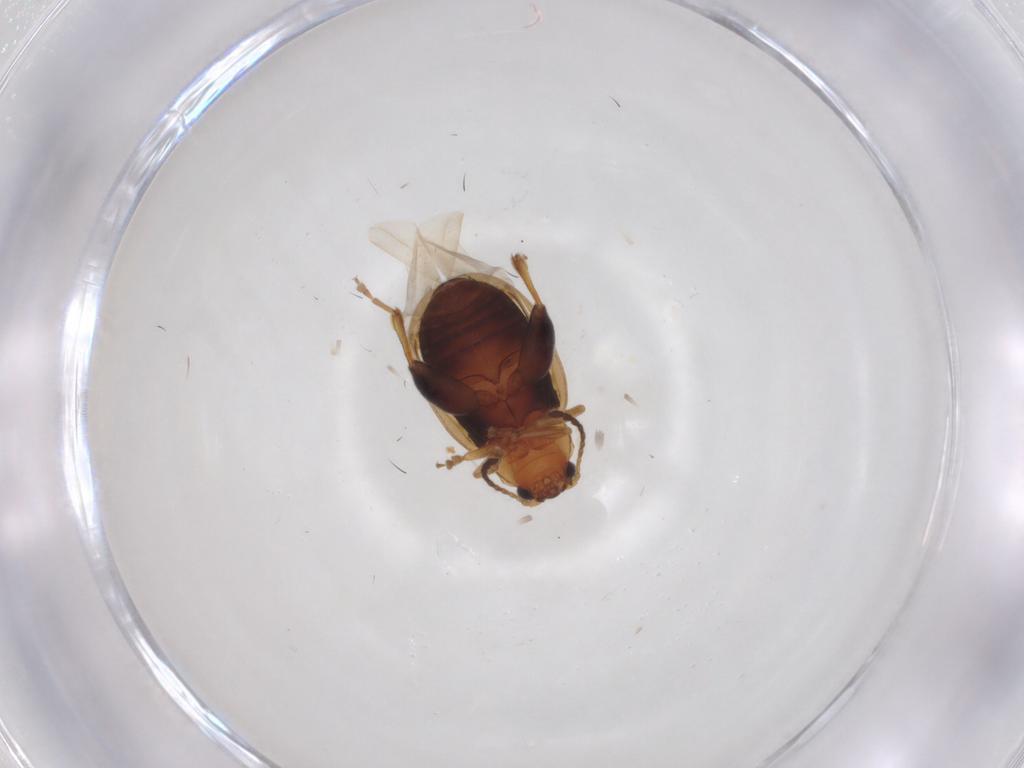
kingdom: Animalia
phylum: Arthropoda
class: Insecta
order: Coleoptera
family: Chrysomelidae
